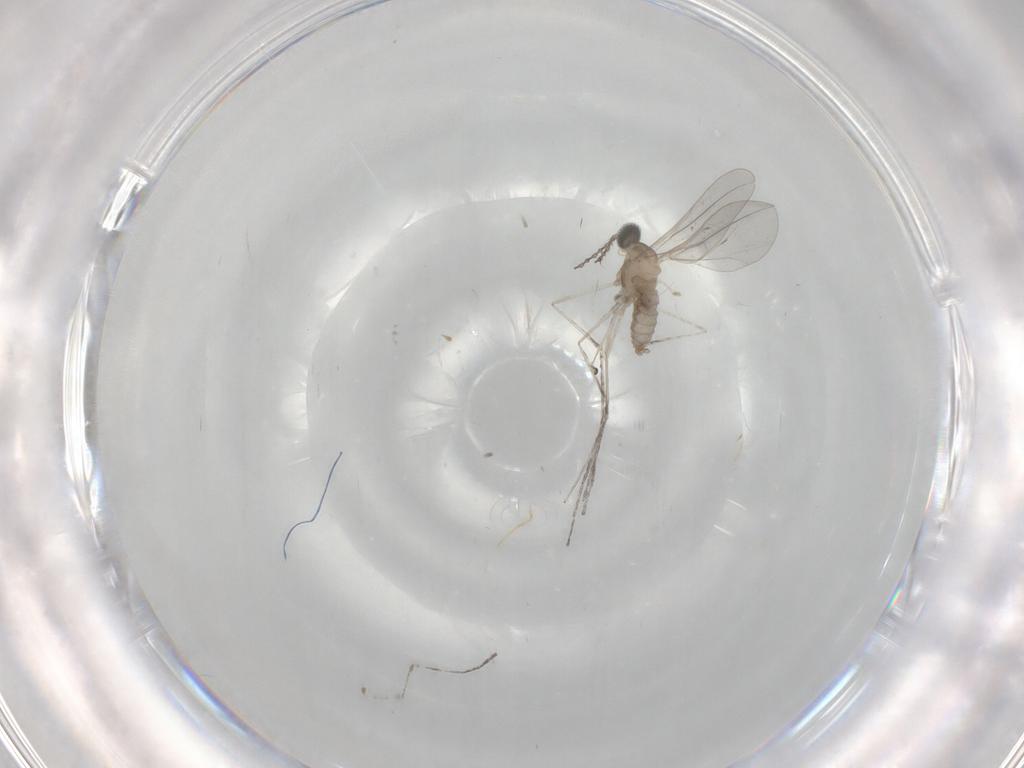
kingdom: Animalia
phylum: Arthropoda
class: Insecta
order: Diptera
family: Cecidomyiidae
